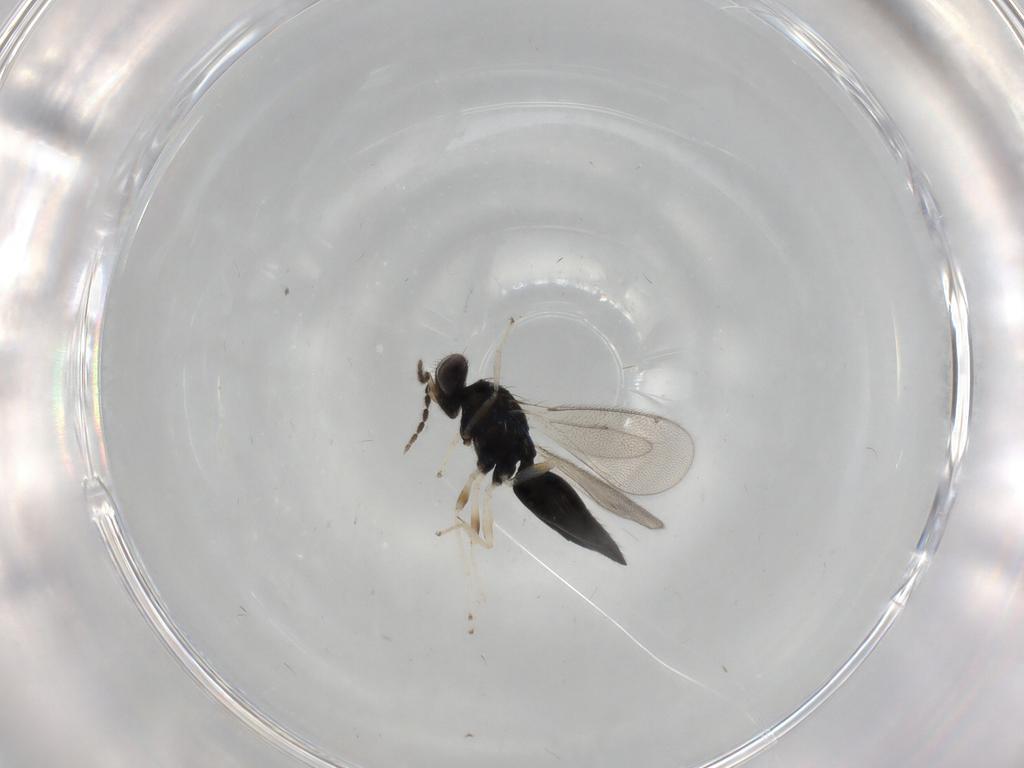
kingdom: Animalia
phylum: Arthropoda
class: Insecta
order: Hymenoptera
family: Eulophidae
